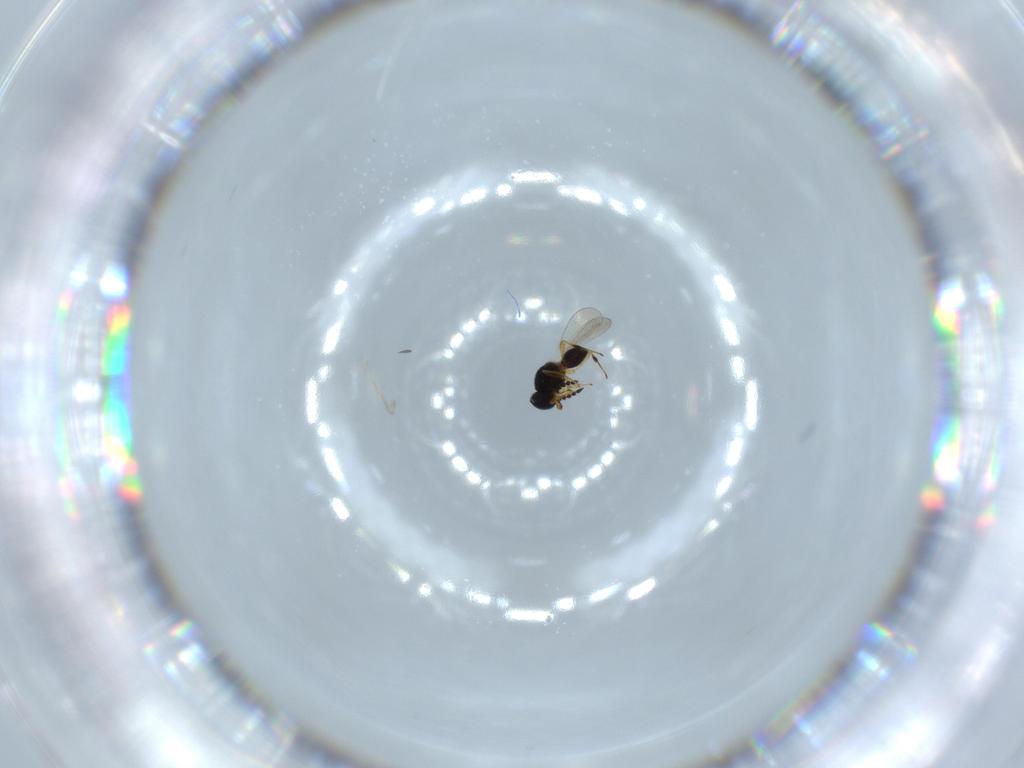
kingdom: Animalia
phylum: Arthropoda
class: Insecta
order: Hymenoptera
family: Platygastridae
